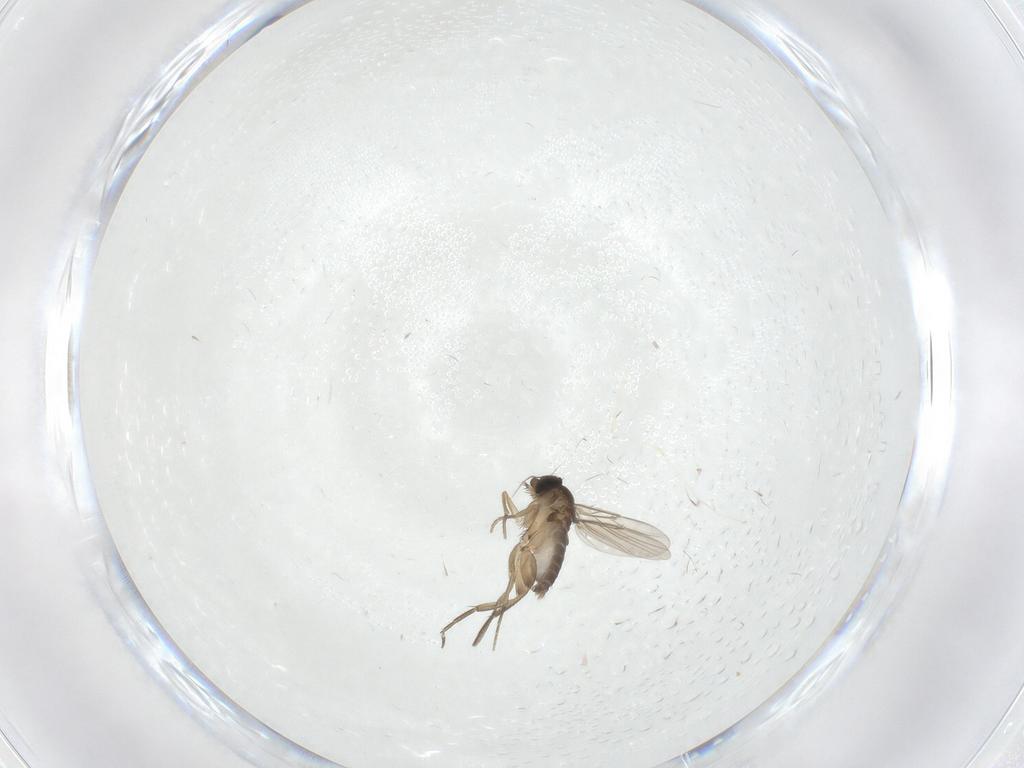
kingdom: Animalia
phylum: Arthropoda
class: Insecta
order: Diptera
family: Cecidomyiidae
